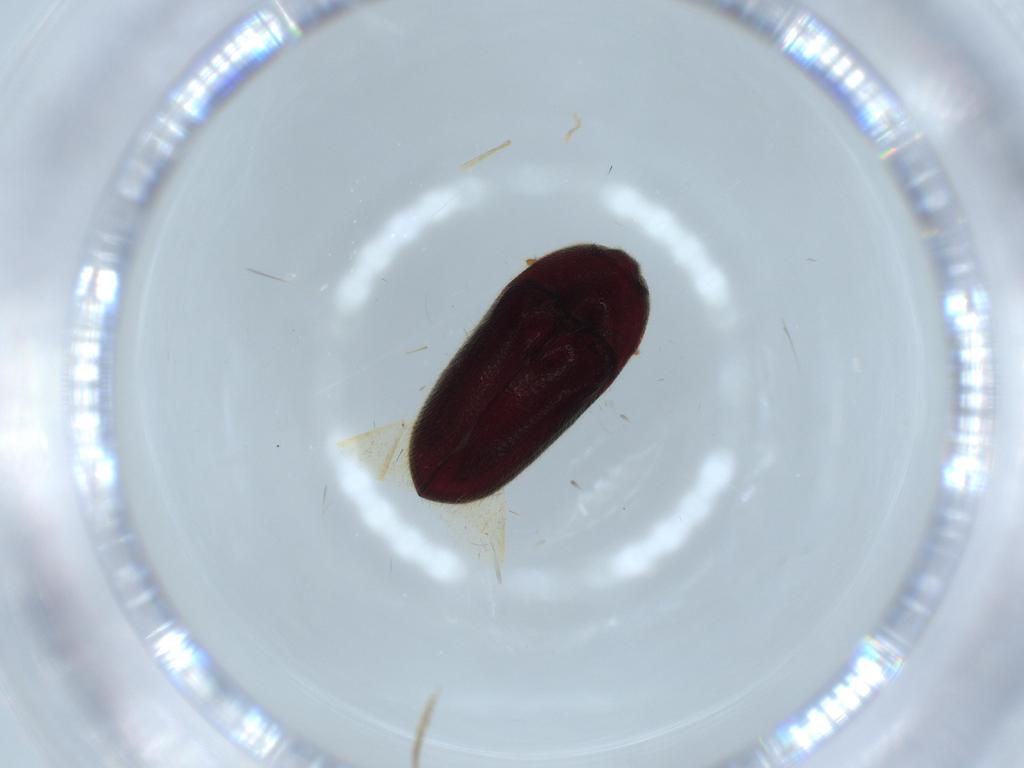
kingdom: Animalia
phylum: Arthropoda
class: Insecta
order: Coleoptera
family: Throscidae
